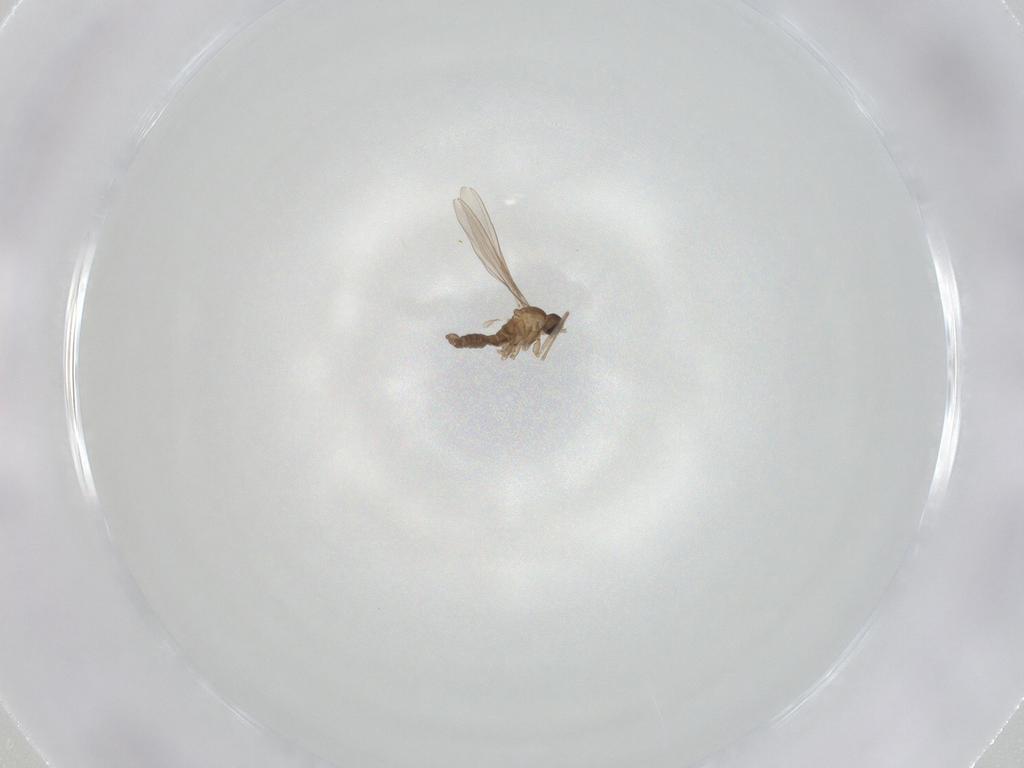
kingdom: Animalia
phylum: Arthropoda
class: Insecta
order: Diptera
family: Cecidomyiidae
